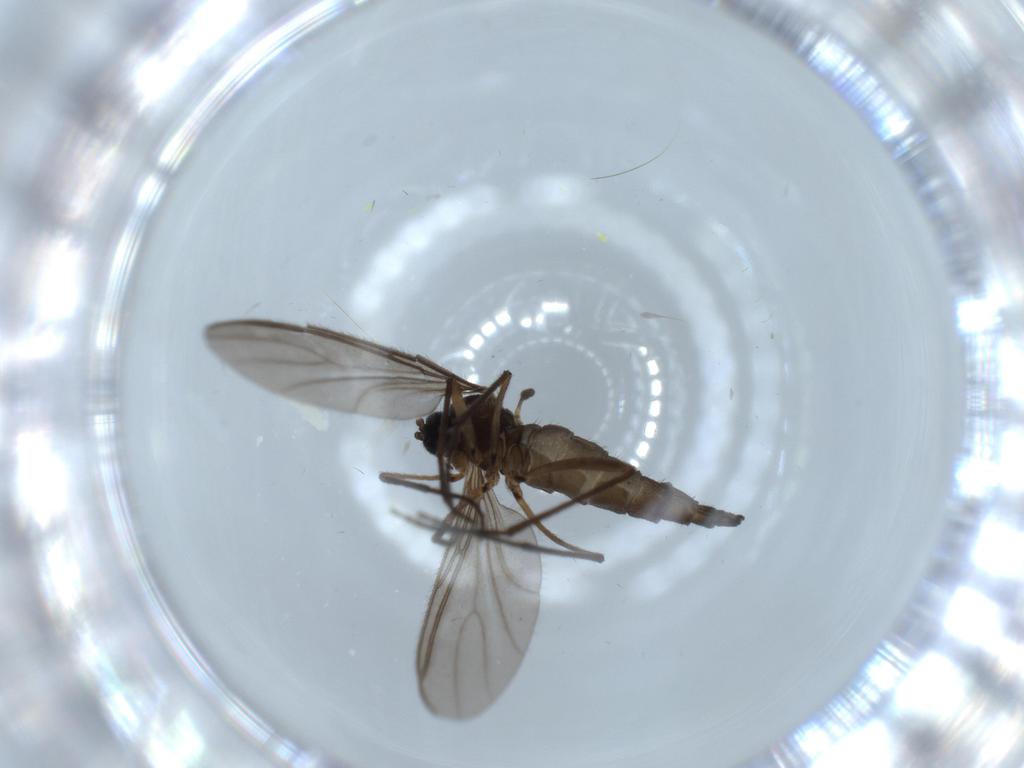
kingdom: Animalia
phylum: Arthropoda
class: Insecta
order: Diptera
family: Sciaridae
